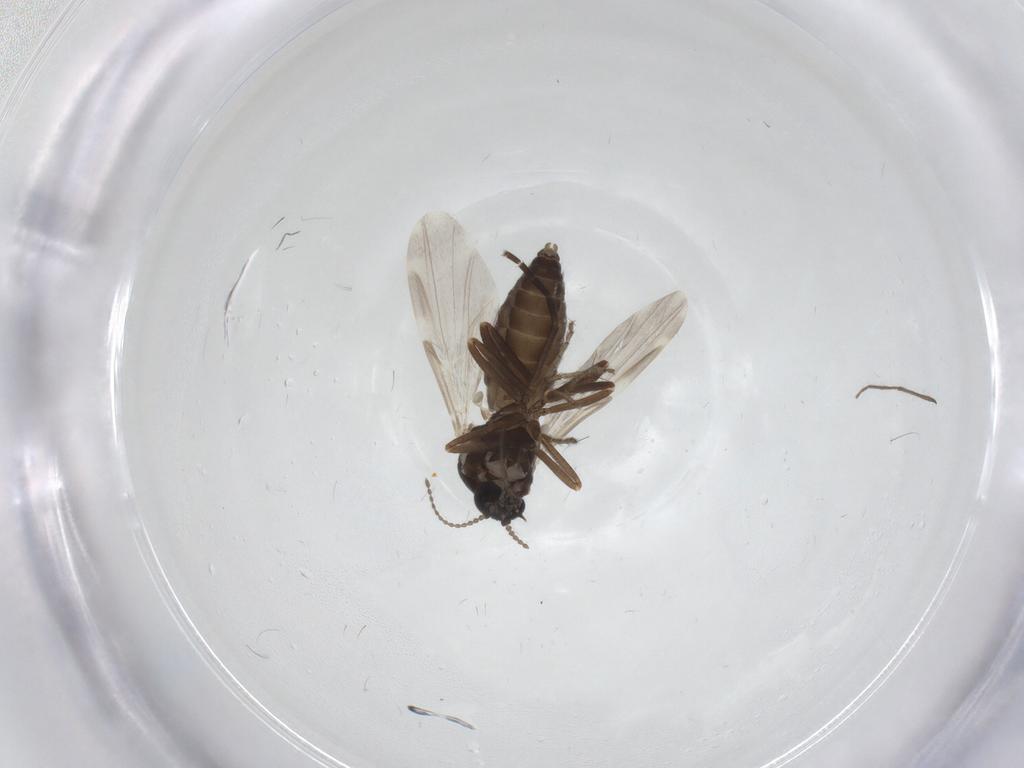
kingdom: Animalia
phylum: Arthropoda
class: Insecta
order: Diptera
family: Ceratopogonidae
